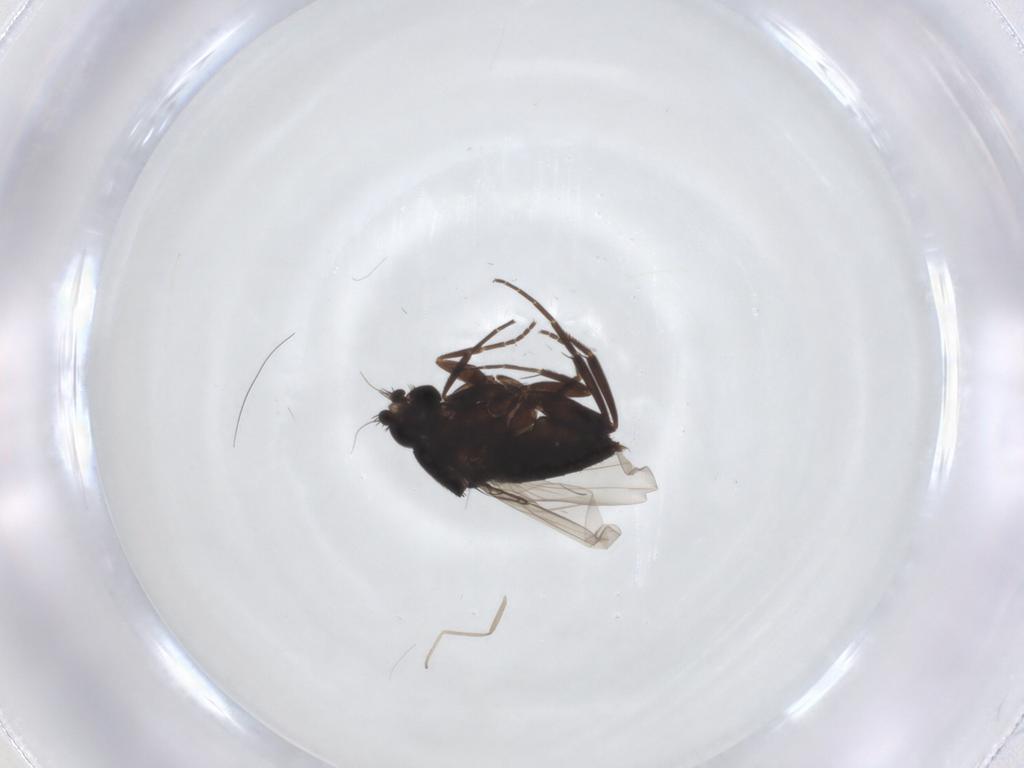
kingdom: Animalia
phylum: Arthropoda
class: Insecta
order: Diptera
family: Phoridae
